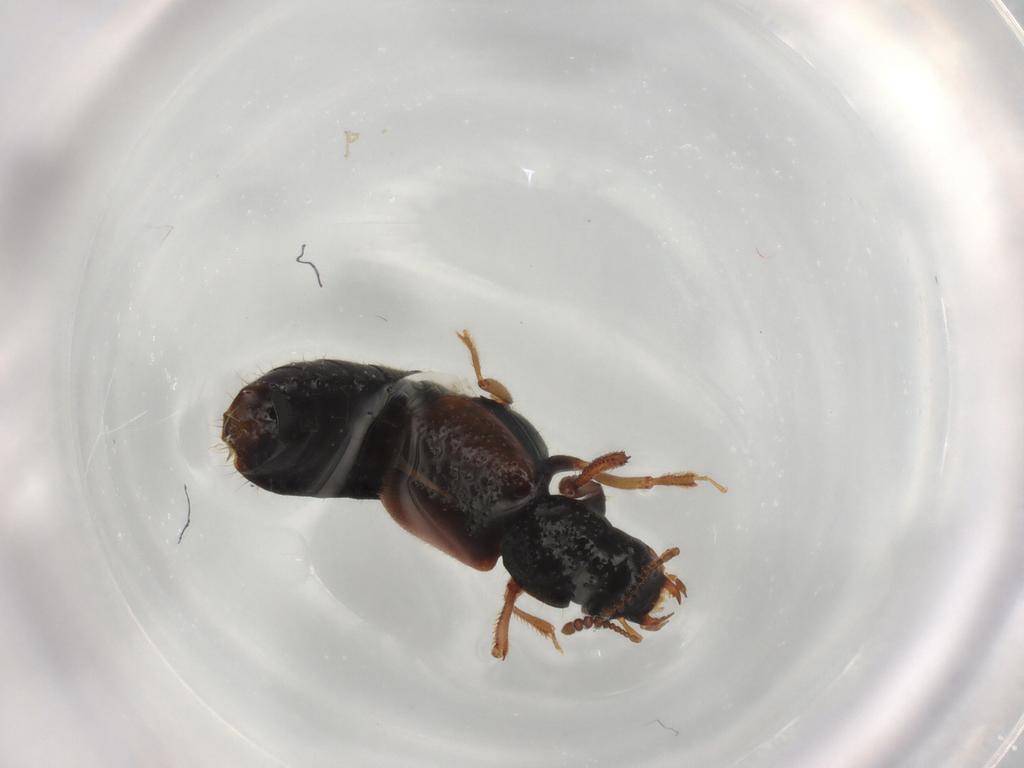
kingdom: Animalia
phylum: Arthropoda
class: Insecta
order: Coleoptera
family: Staphylinidae
